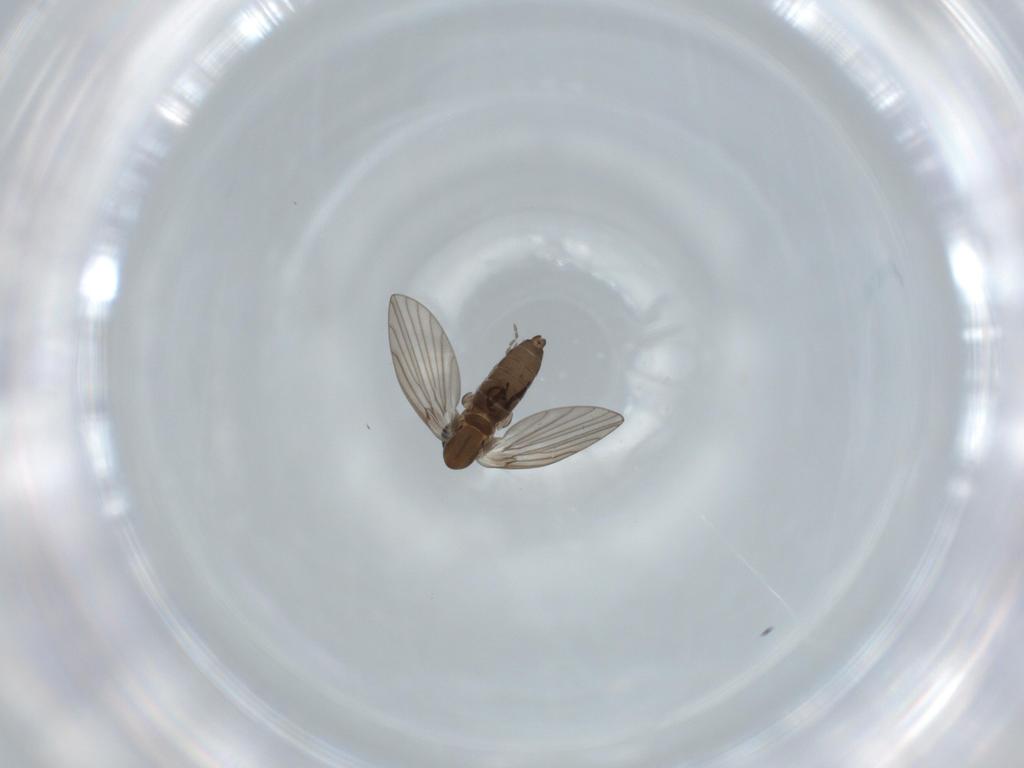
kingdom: Animalia
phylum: Arthropoda
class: Insecta
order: Diptera
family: Psychodidae
